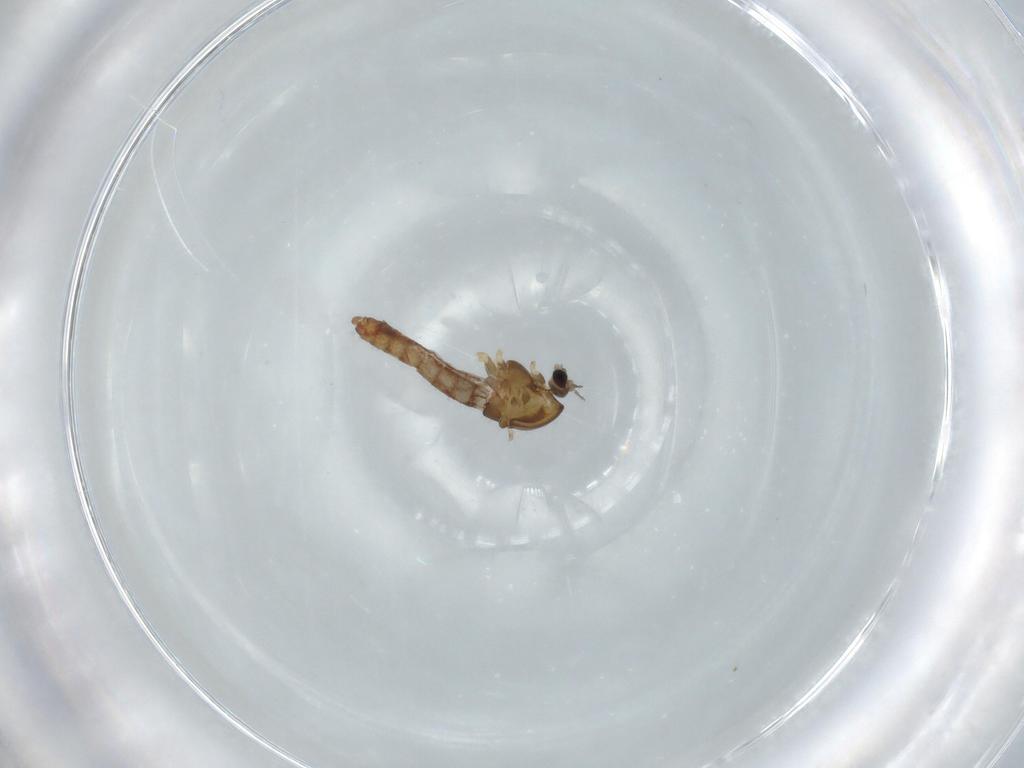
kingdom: Animalia
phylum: Arthropoda
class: Insecta
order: Diptera
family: Chironomidae
